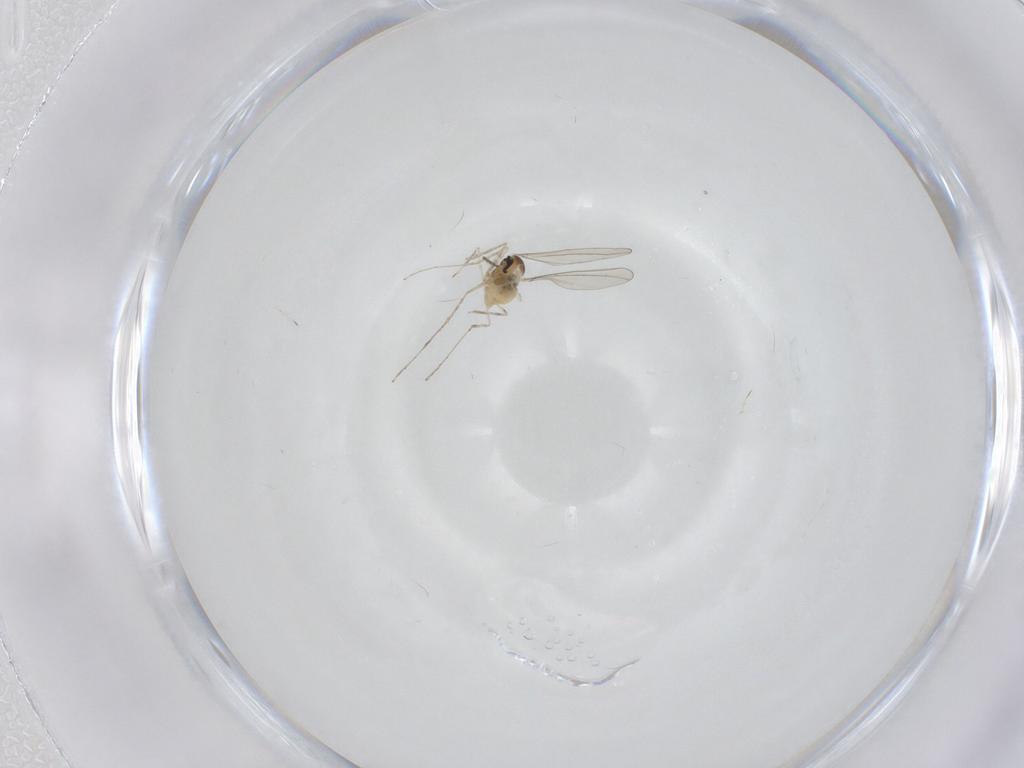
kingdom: Animalia
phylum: Arthropoda
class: Insecta
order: Diptera
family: Cecidomyiidae
